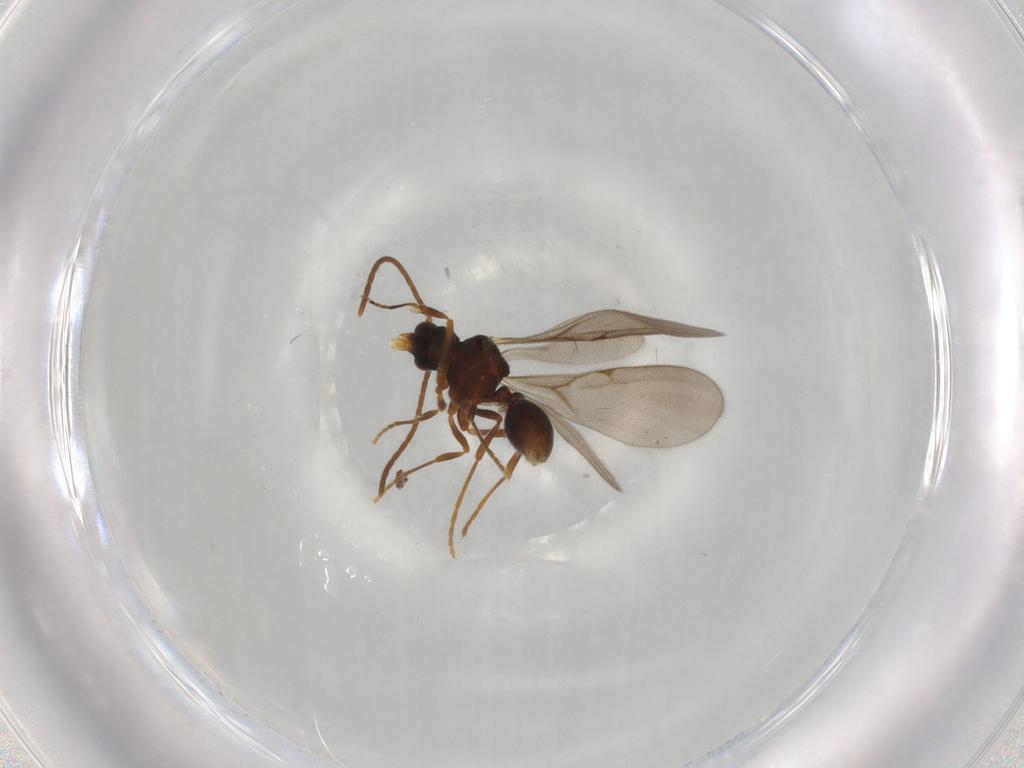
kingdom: Animalia
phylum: Arthropoda
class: Insecta
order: Hymenoptera
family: Formicidae
